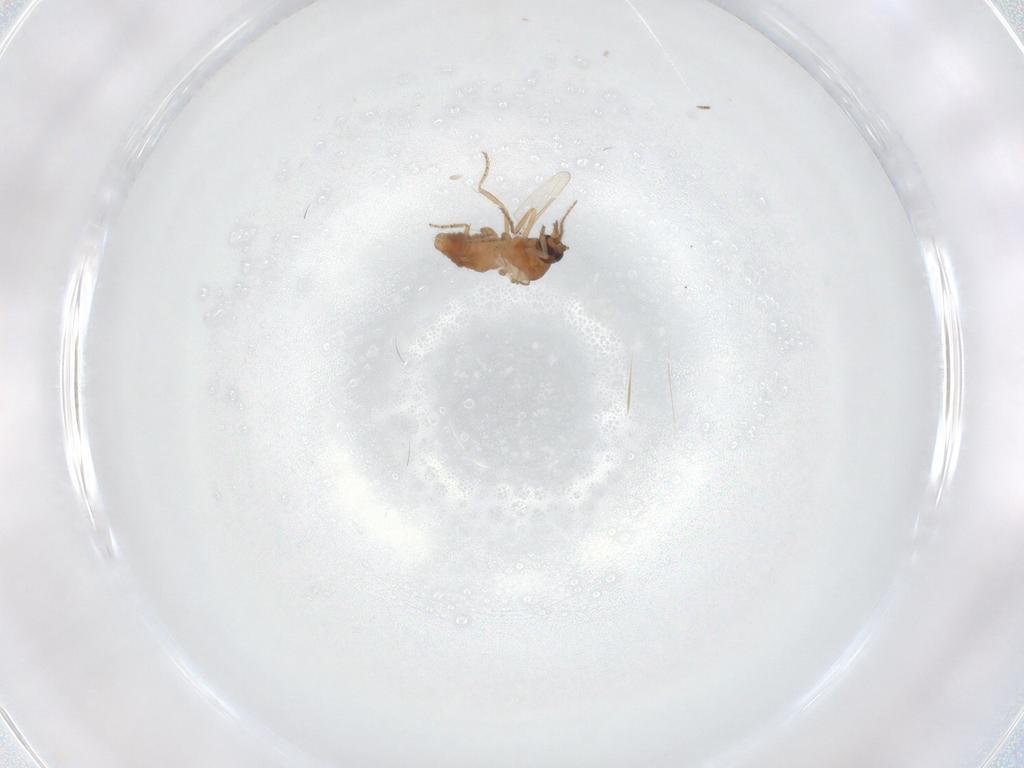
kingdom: Animalia
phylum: Arthropoda
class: Insecta
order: Diptera
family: Ceratopogonidae
